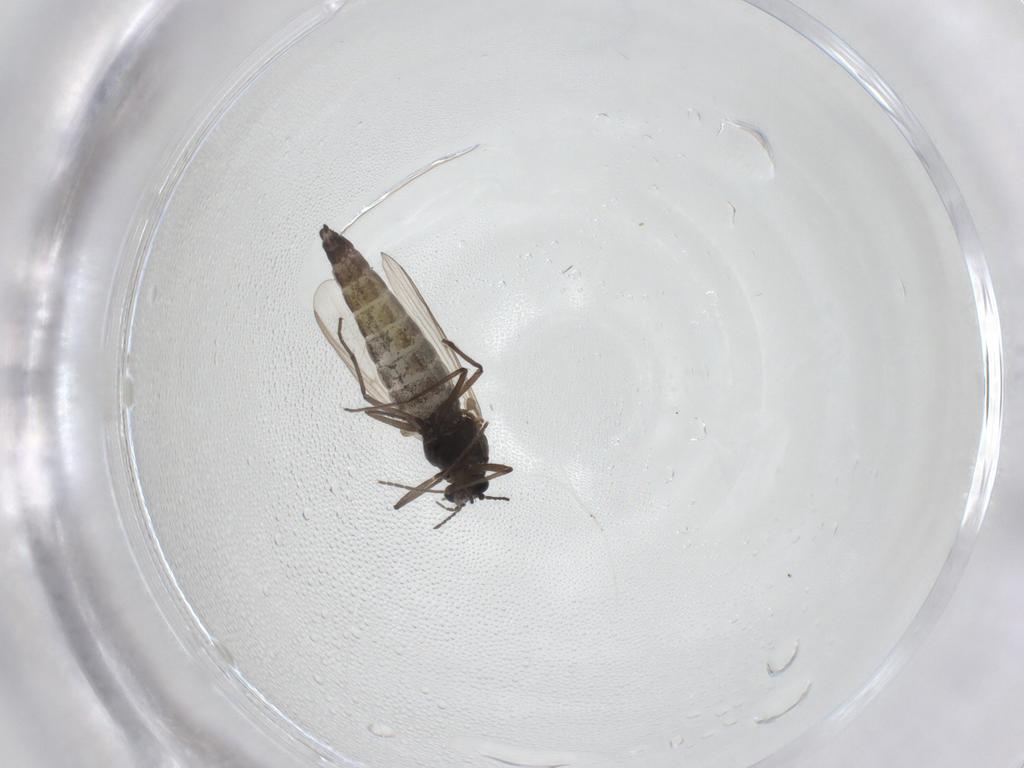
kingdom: Animalia
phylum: Arthropoda
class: Insecta
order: Diptera
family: Chironomidae
